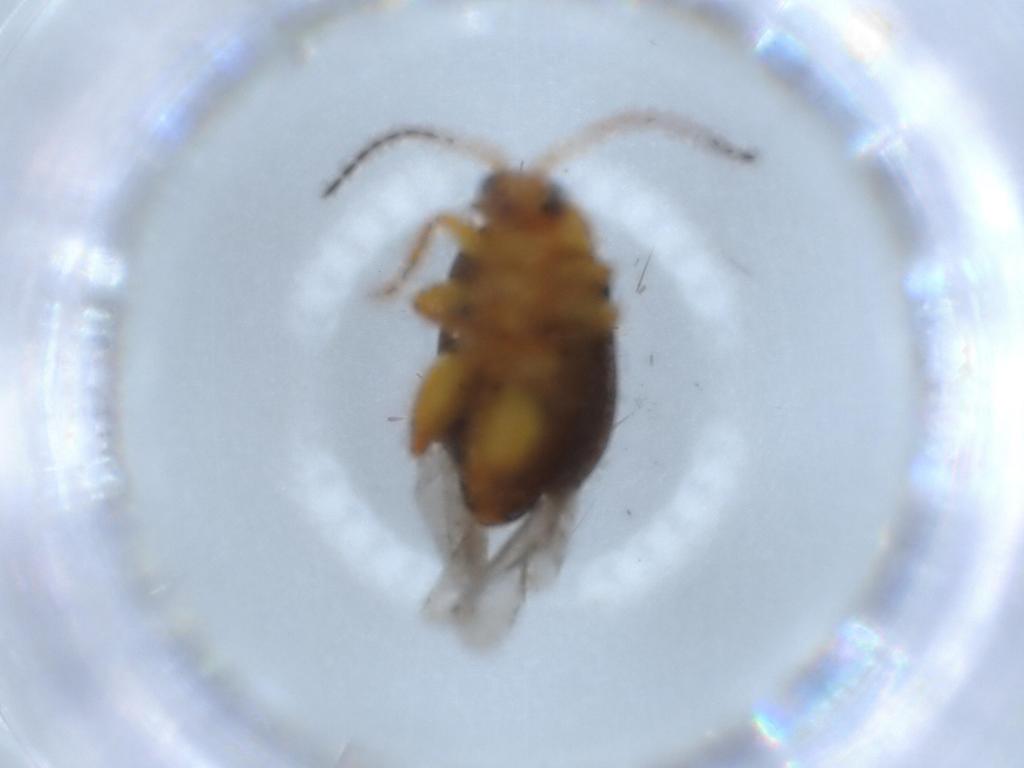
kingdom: Animalia
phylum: Arthropoda
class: Insecta
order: Coleoptera
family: Chrysomelidae
